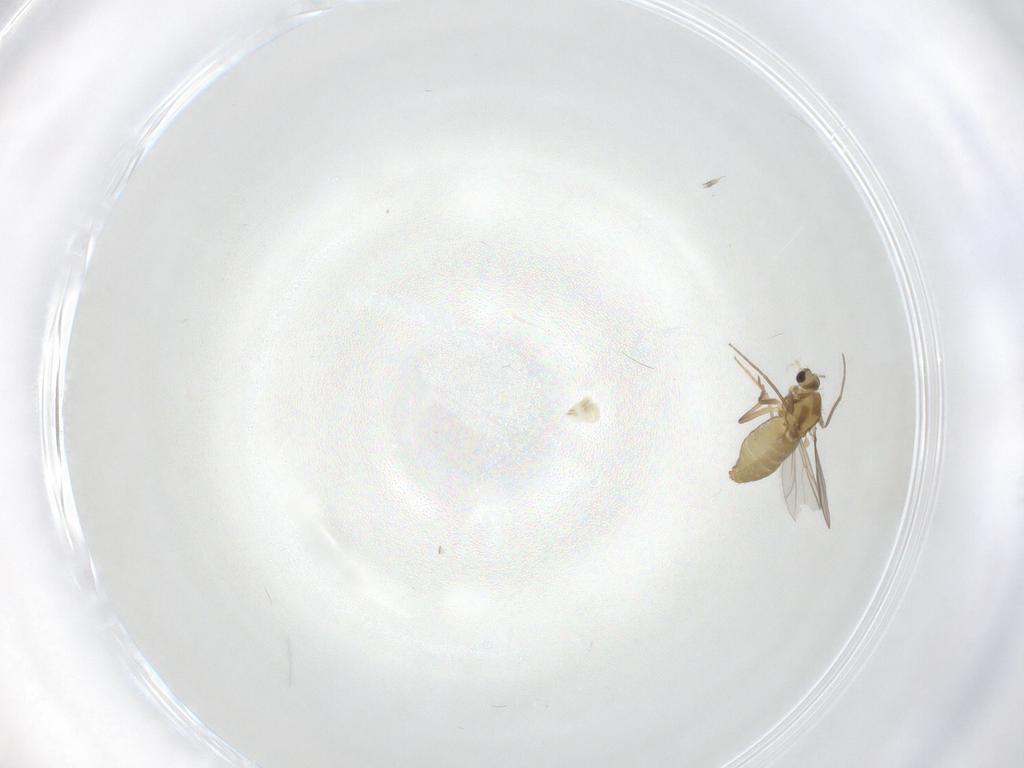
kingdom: Animalia
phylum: Arthropoda
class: Insecta
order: Diptera
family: Chironomidae
